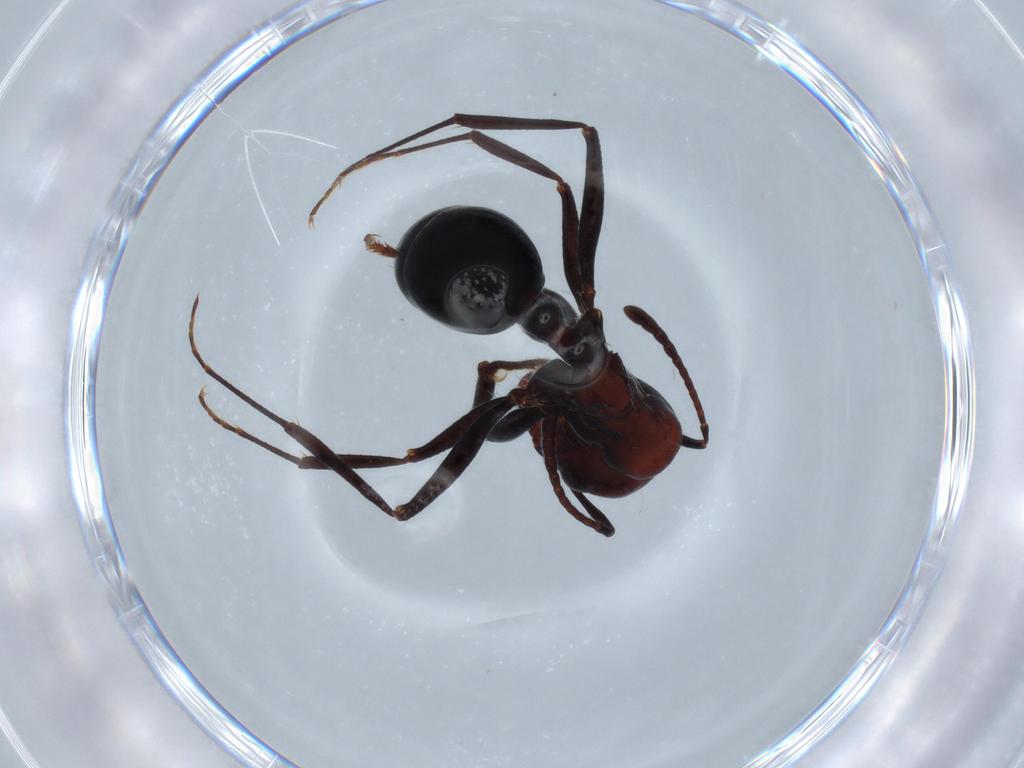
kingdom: Animalia
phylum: Arthropoda
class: Insecta
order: Hymenoptera
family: Formicidae
